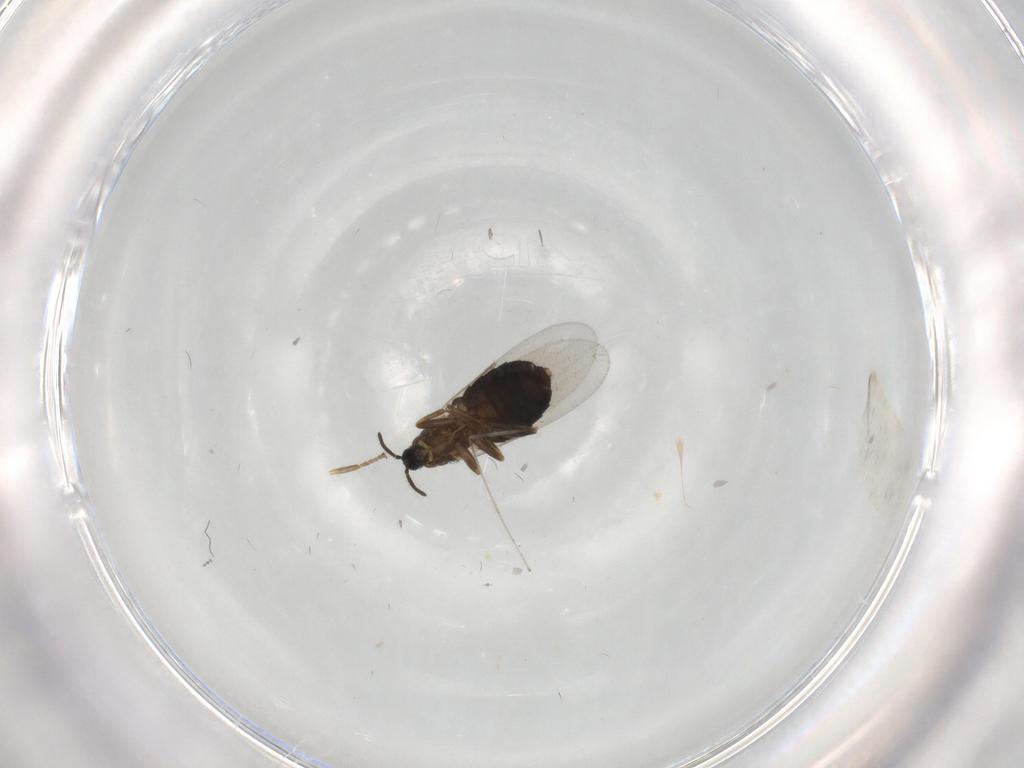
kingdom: Animalia
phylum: Arthropoda
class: Insecta
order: Diptera
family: Scatopsidae
